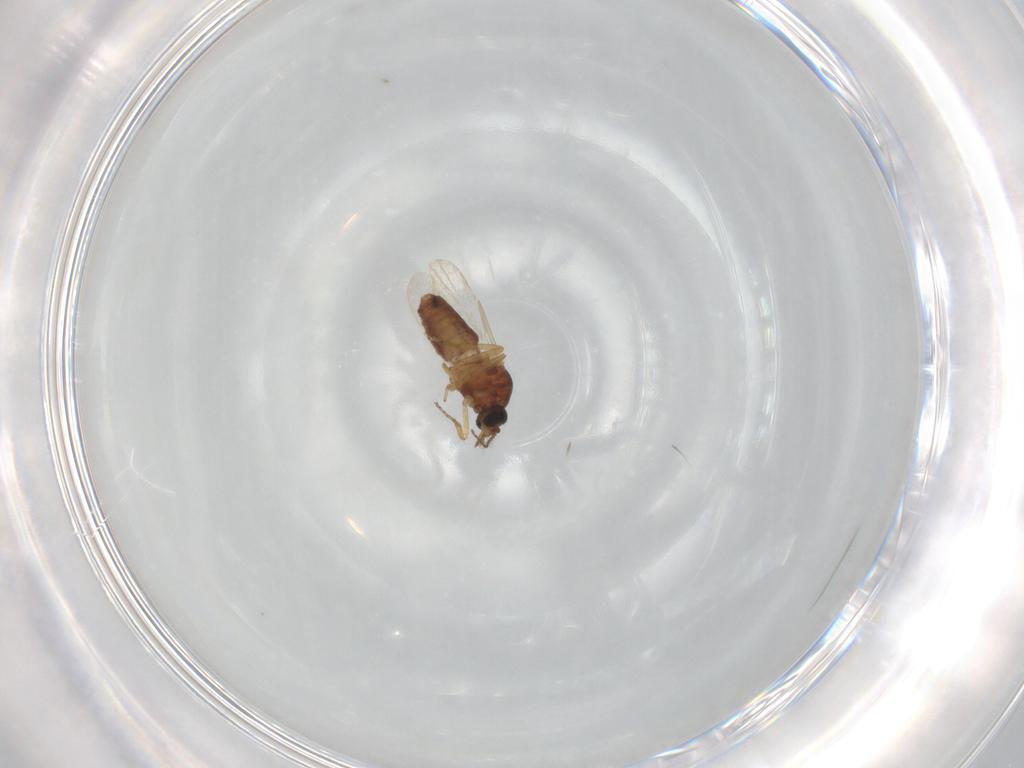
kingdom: Animalia
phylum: Arthropoda
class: Insecta
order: Diptera
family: Ceratopogonidae
